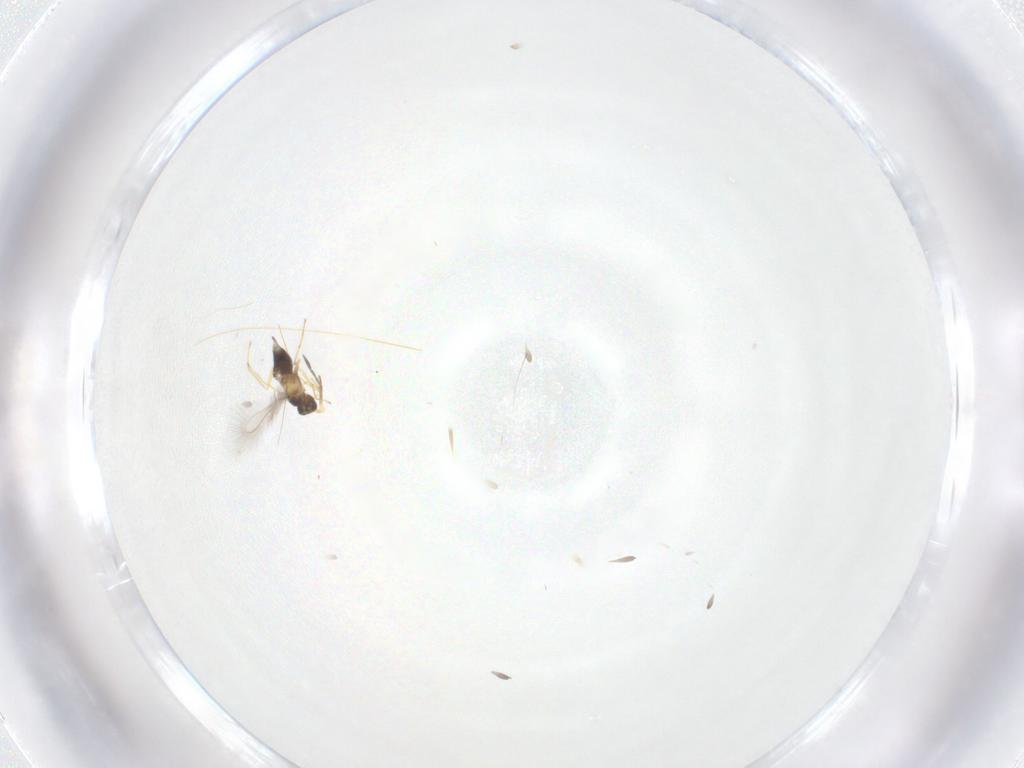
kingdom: Animalia
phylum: Arthropoda
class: Insecta
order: Hymenoptera
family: Mymaridae
